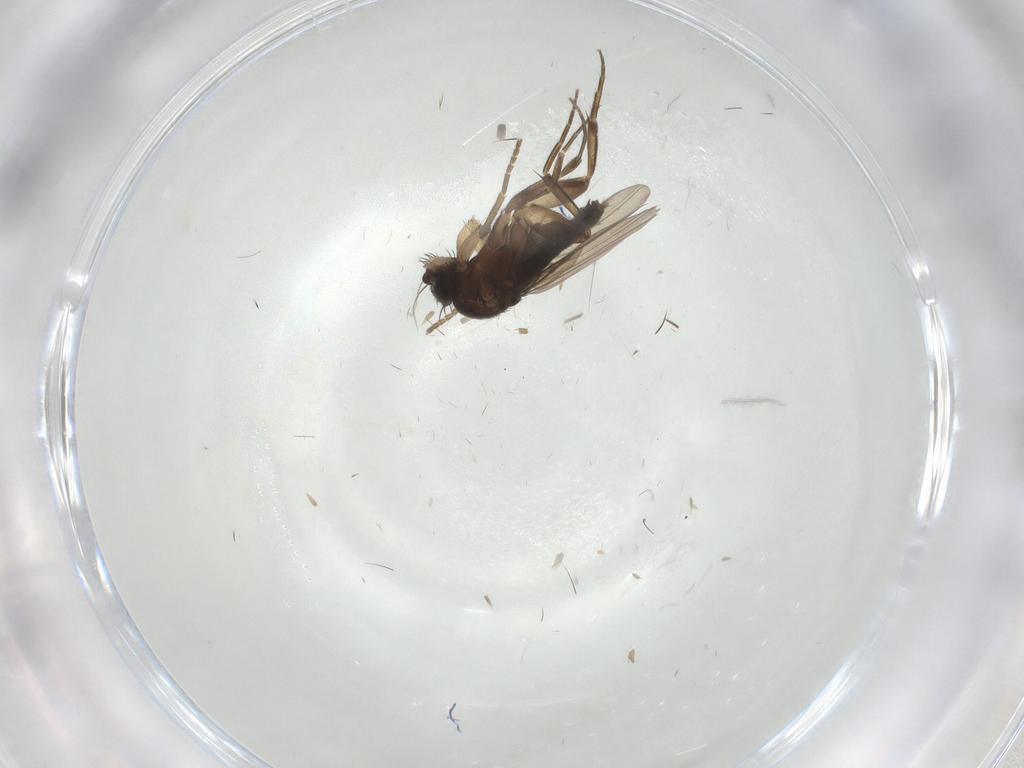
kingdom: Animalia
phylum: Arthropoda
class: Insecta
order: Diptera
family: Phoridae
